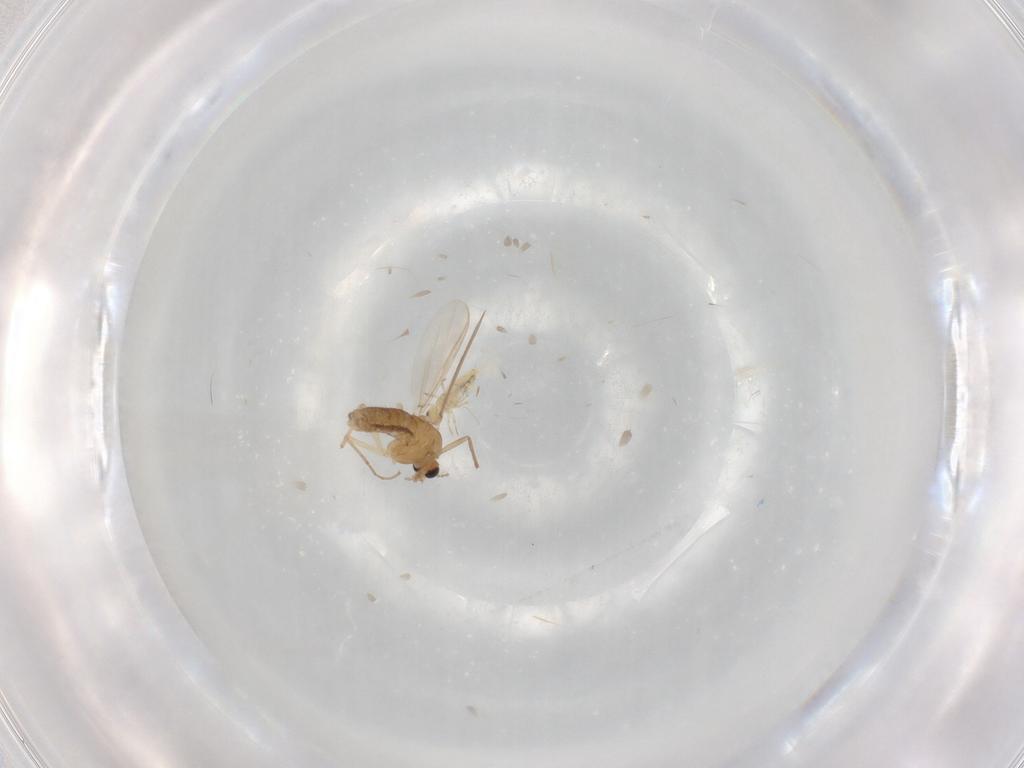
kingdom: Animalia
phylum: Arthropoda
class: Insecta
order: Diptera
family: Chironomidae
